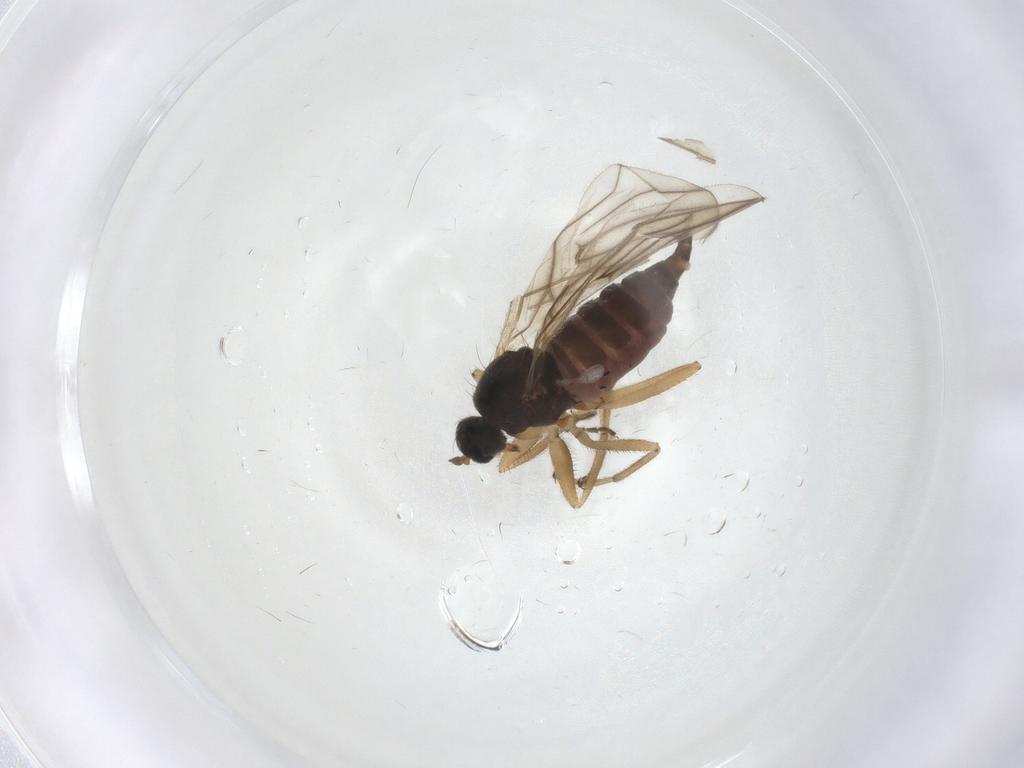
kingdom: Animalia
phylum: Arthropoda
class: Insecta
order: Diptera
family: Hybotidae
